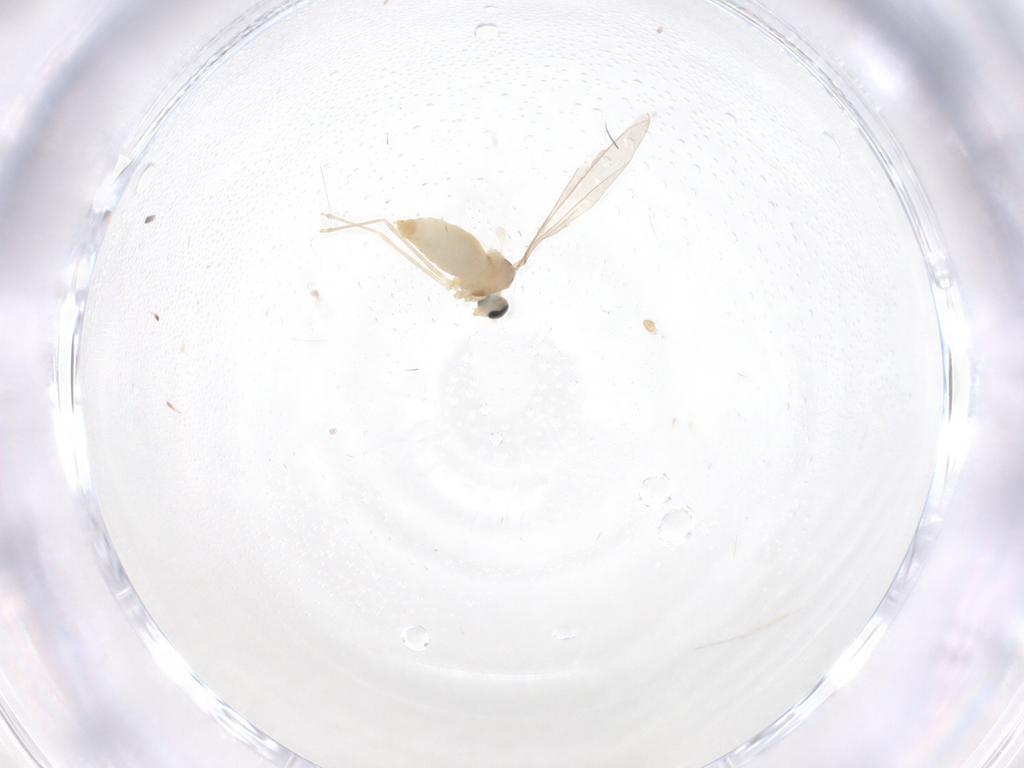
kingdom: Animalia
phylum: Arthropoda
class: Insecta
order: Diptera
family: Cecidomyiidae
